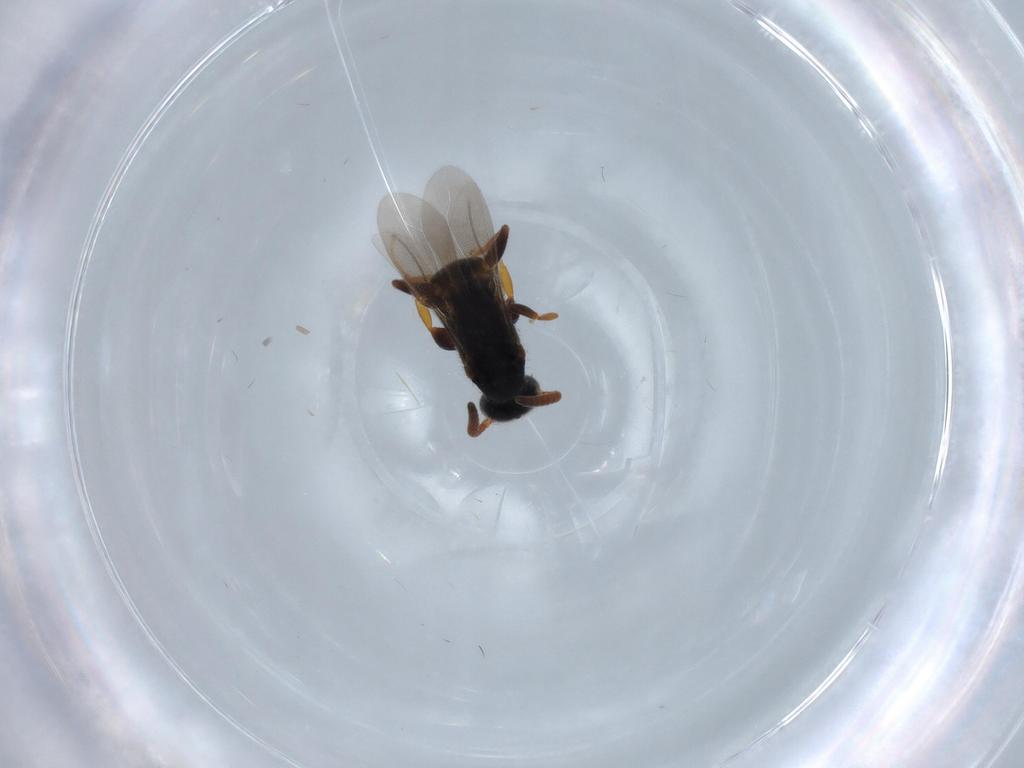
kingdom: Animalia
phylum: Arthropoda
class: Insecta
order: Hymenoptera
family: Bethylidae
